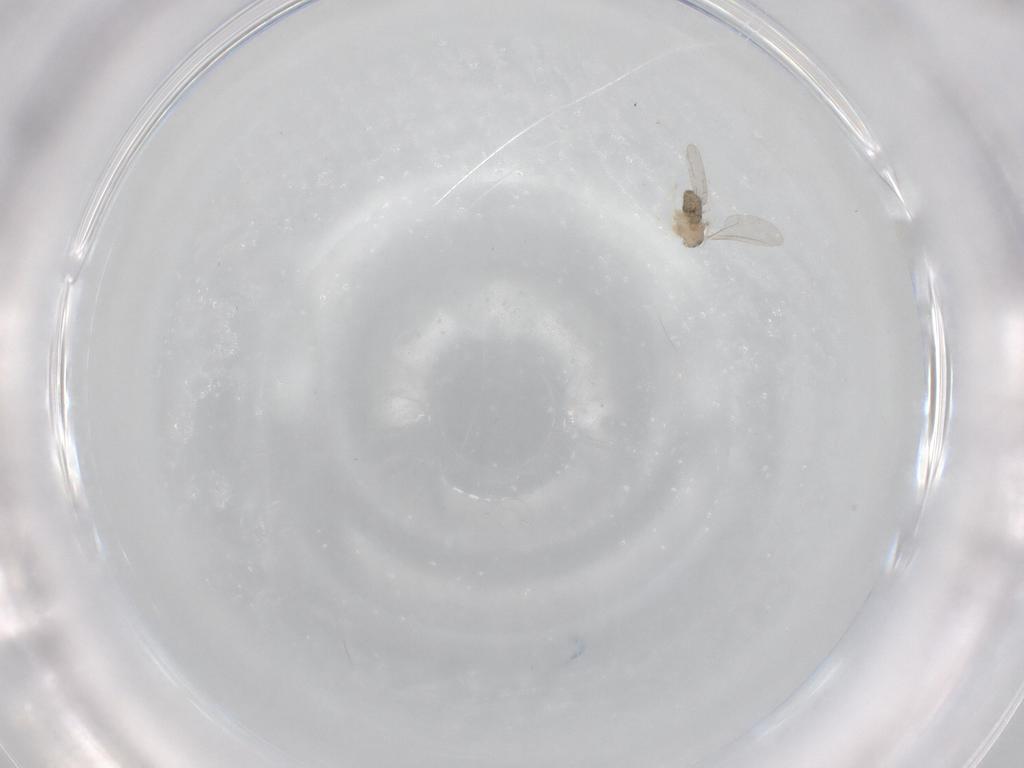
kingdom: Animalia
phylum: Arthropoda
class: Insecta
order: Diptera
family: Cecidomyiidae
